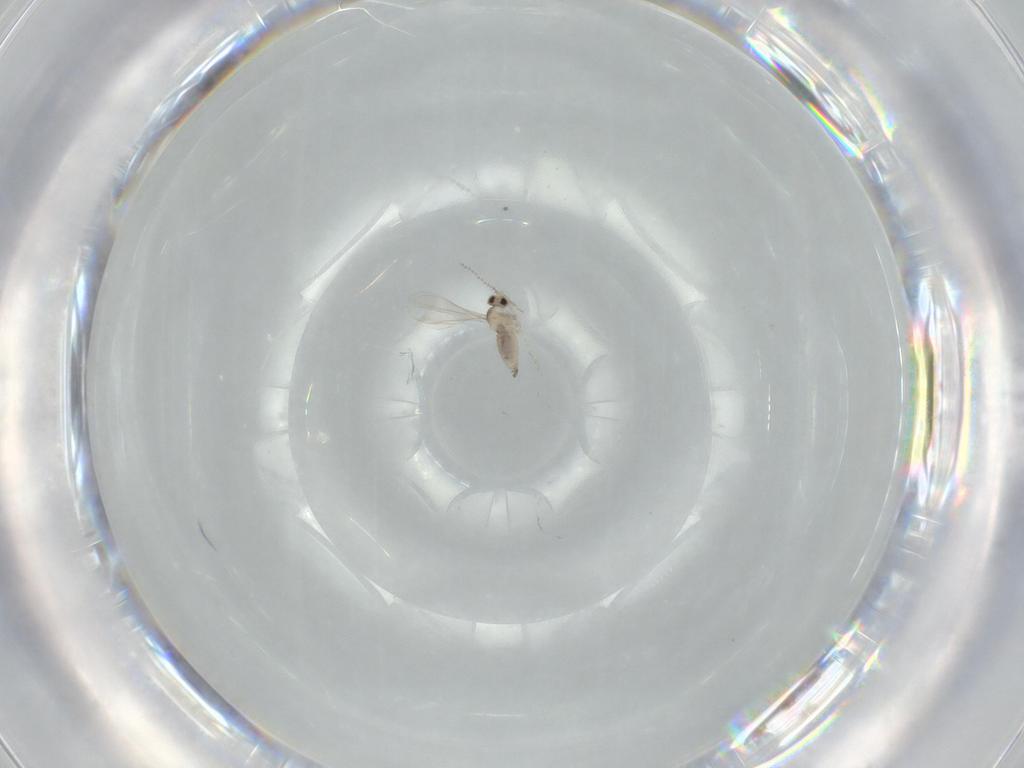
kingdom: Animalia
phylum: Arthropoda
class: Insecta
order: Diptera
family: Cecidomyiidae
